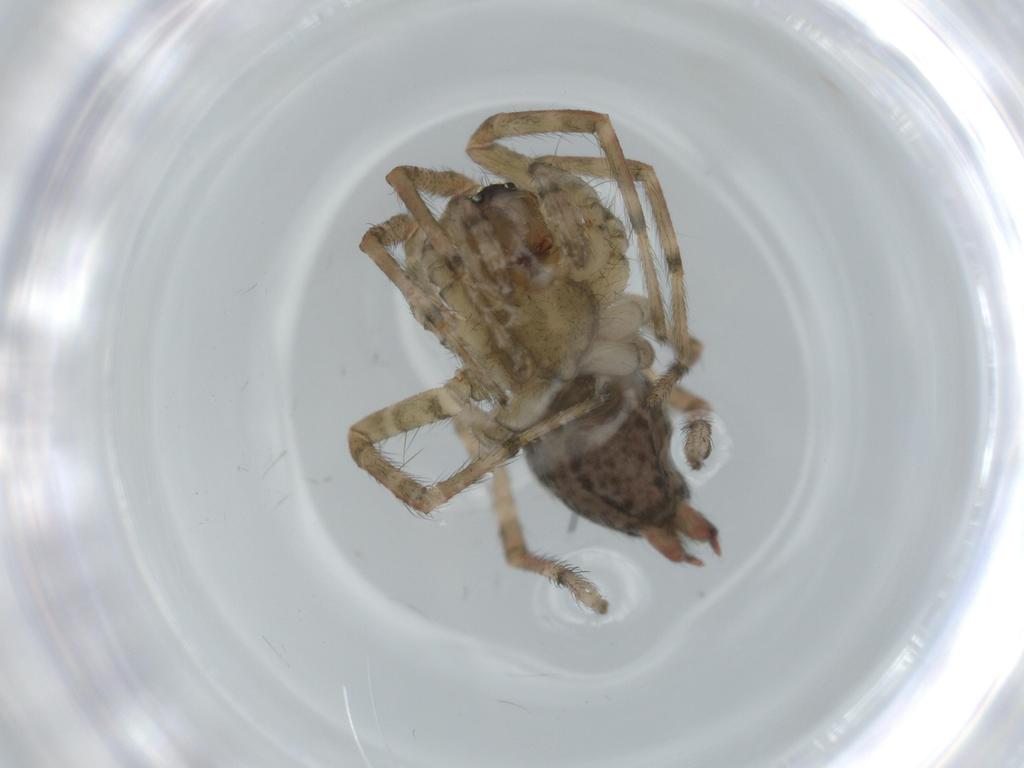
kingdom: Animalia
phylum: Arthropoda
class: Arachnida
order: Araneae
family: Agelenidae
